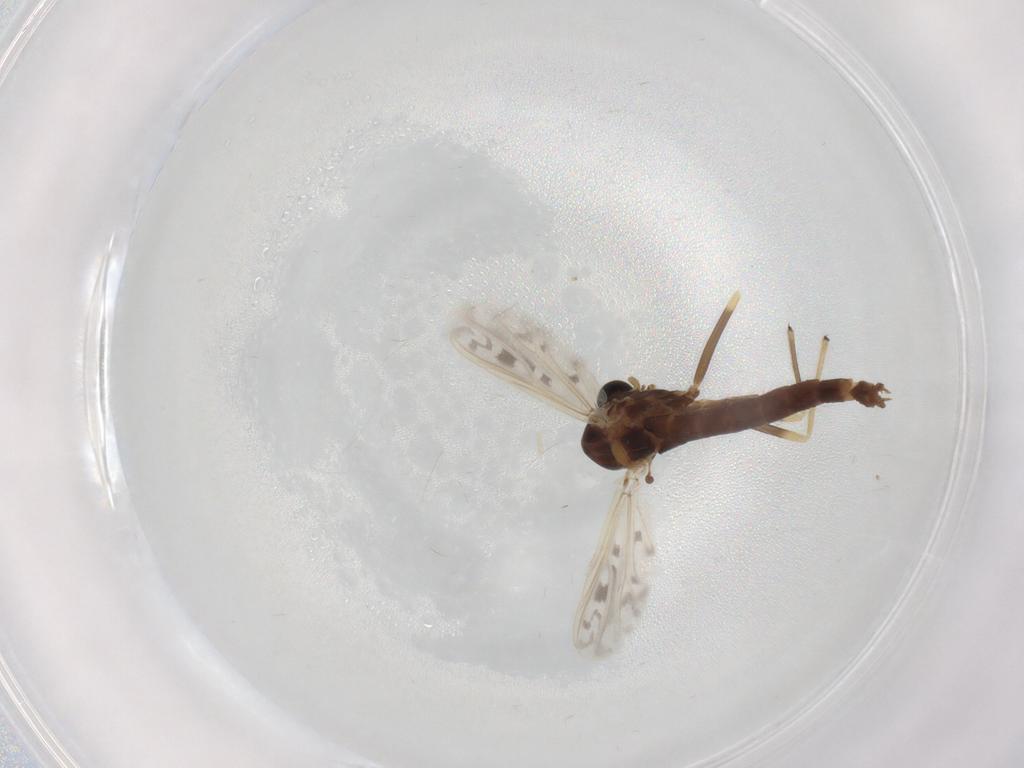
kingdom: Animalia
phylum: Arthropoda
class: Insecta
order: Diptera
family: Chironomidae
